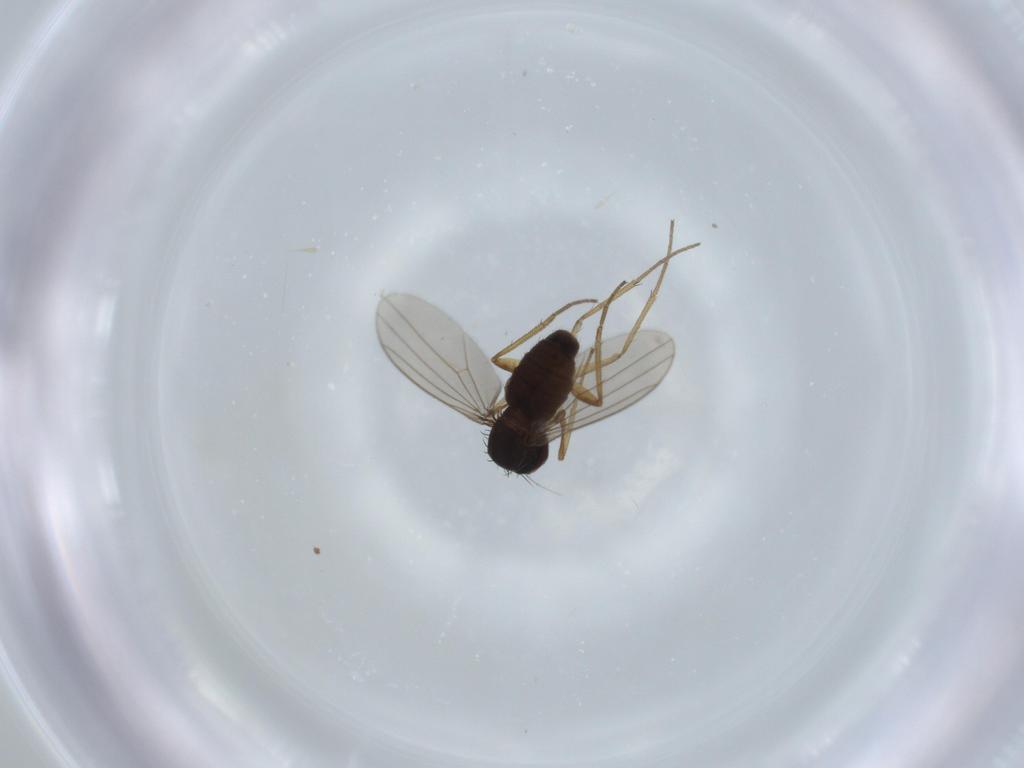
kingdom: Animalia
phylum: Arthropoda
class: Insecta
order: Diptera
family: Dolichopodidae
